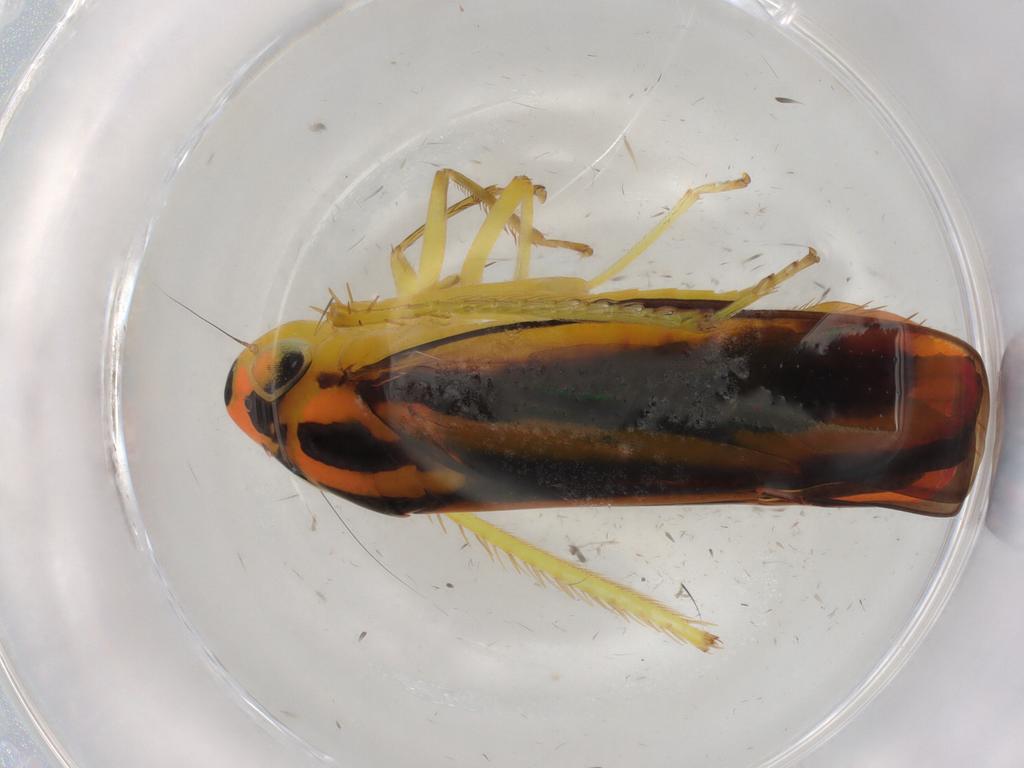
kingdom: Animalia
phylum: Arthropoda
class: Insecta
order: Hemiptera
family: Cicadellidae
